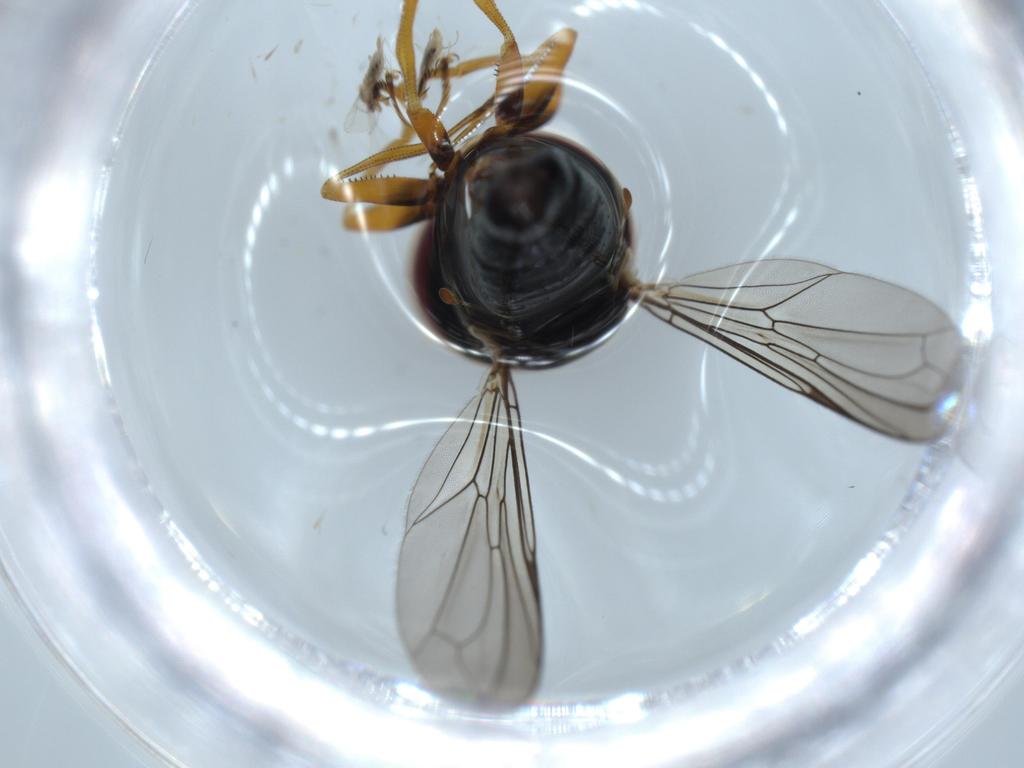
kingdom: Animalia
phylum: Arthropoda
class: Insecta
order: Diptera
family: Pipunculidae
